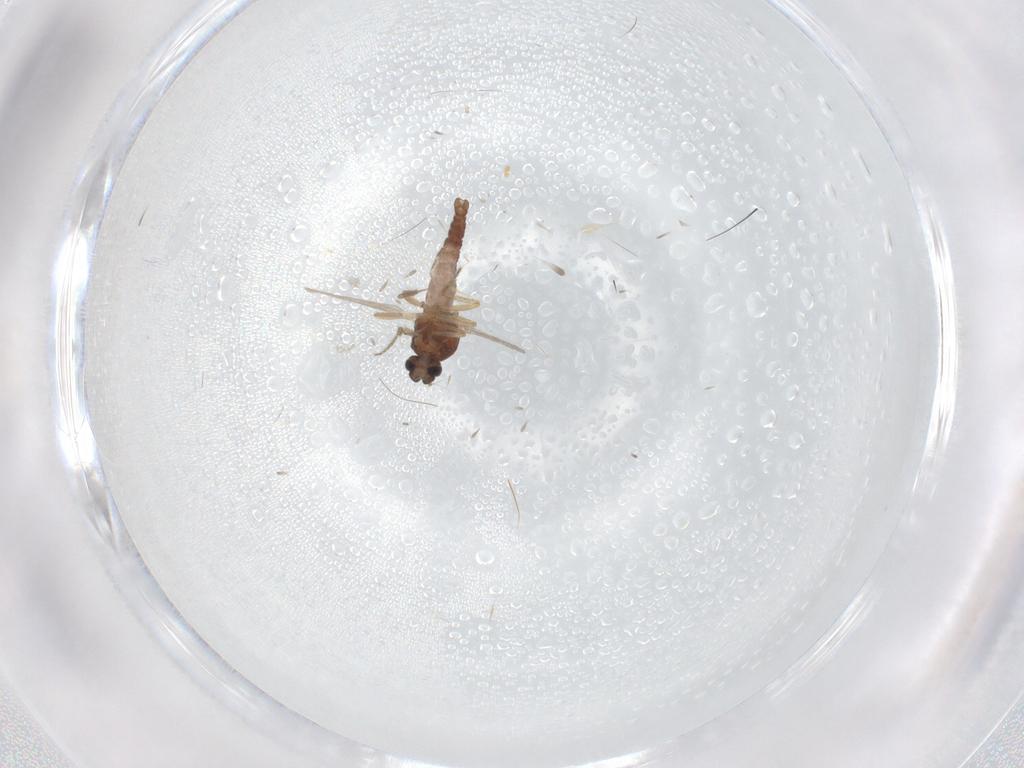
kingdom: Animalia
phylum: Arthropoda
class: Insecta
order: Diptera
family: Ceratopogonidae
